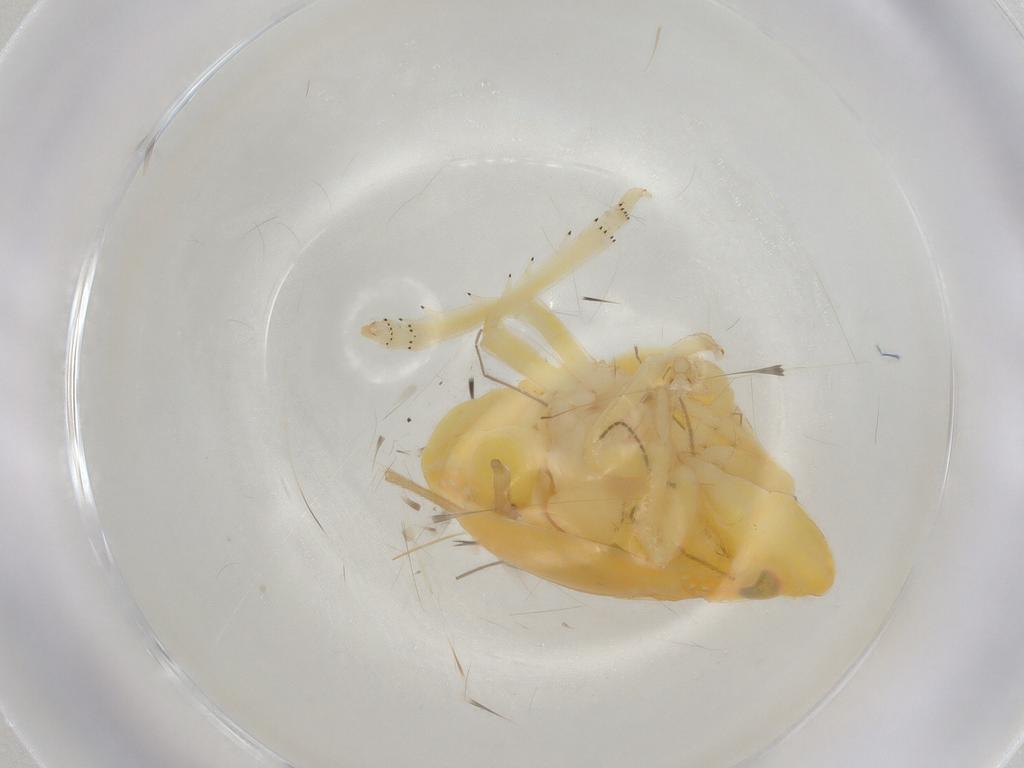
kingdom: Animalia
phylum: Arthropoda
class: Insecta
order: Hemiptera
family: Tropiduchidae
